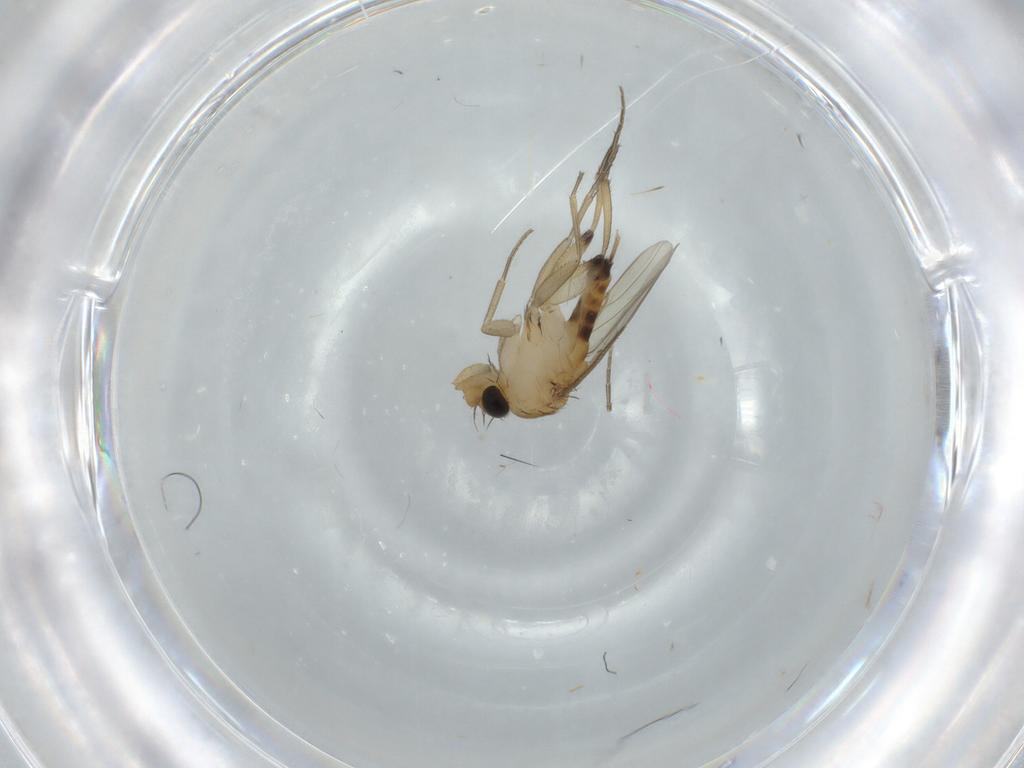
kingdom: Animalia
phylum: Arthropoda
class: Insecta
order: Diptera
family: Phoridae
